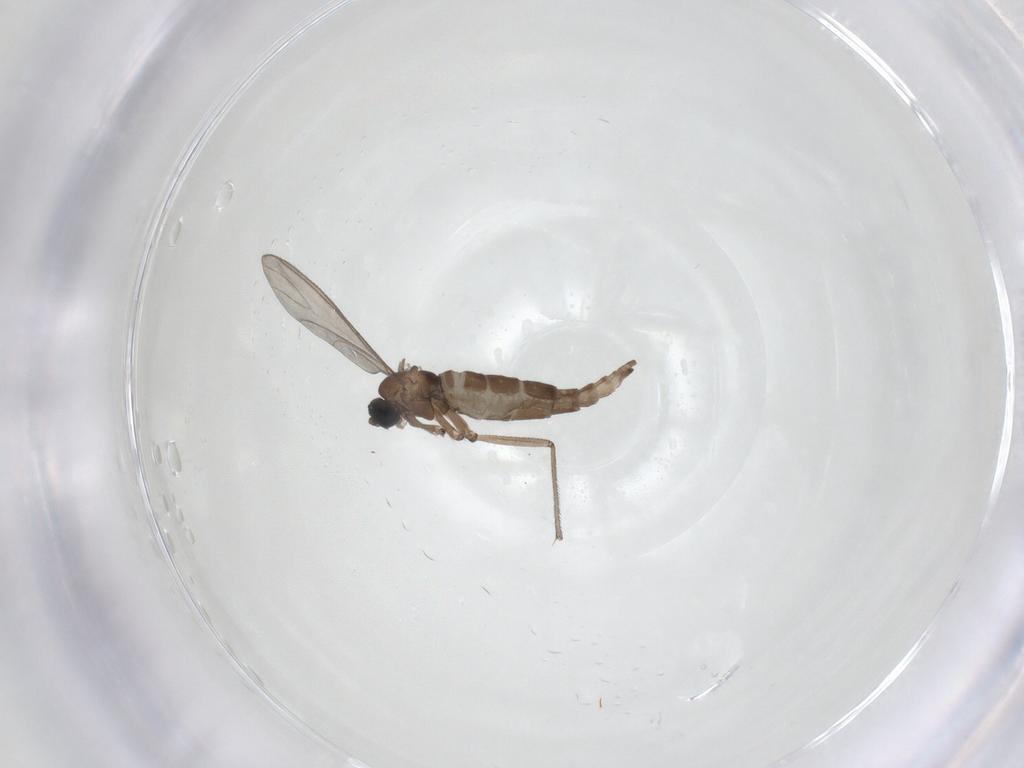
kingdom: Animalia
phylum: Arthropoda
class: Insecta
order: Diptera
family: Sciaridae
